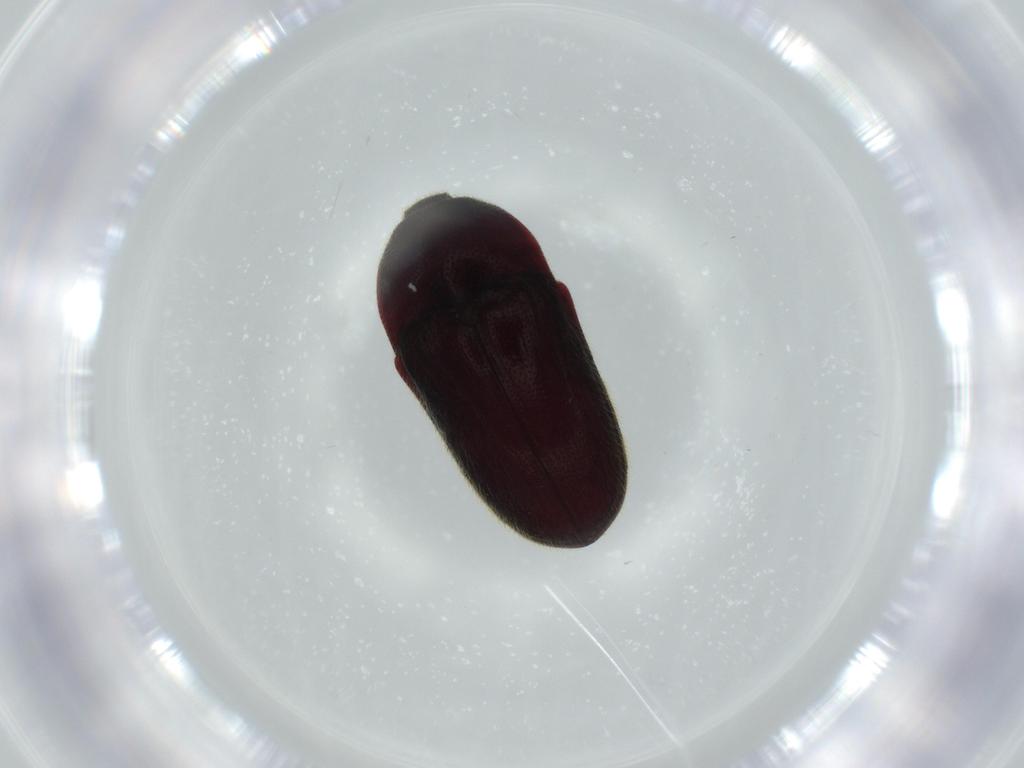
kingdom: Animalia
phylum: Arthropoda
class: Insecta
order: Coleoptera
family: Throscidae
